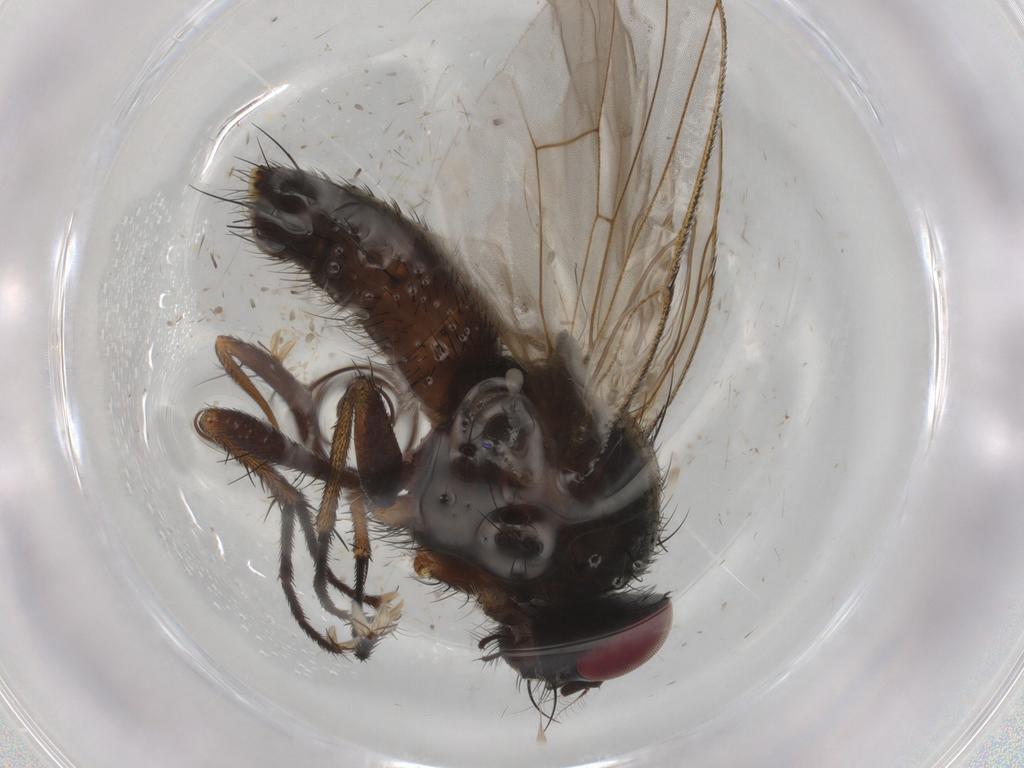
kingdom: Animalia
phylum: Arthropoda
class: Insecta
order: Diptera
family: Muscidae
